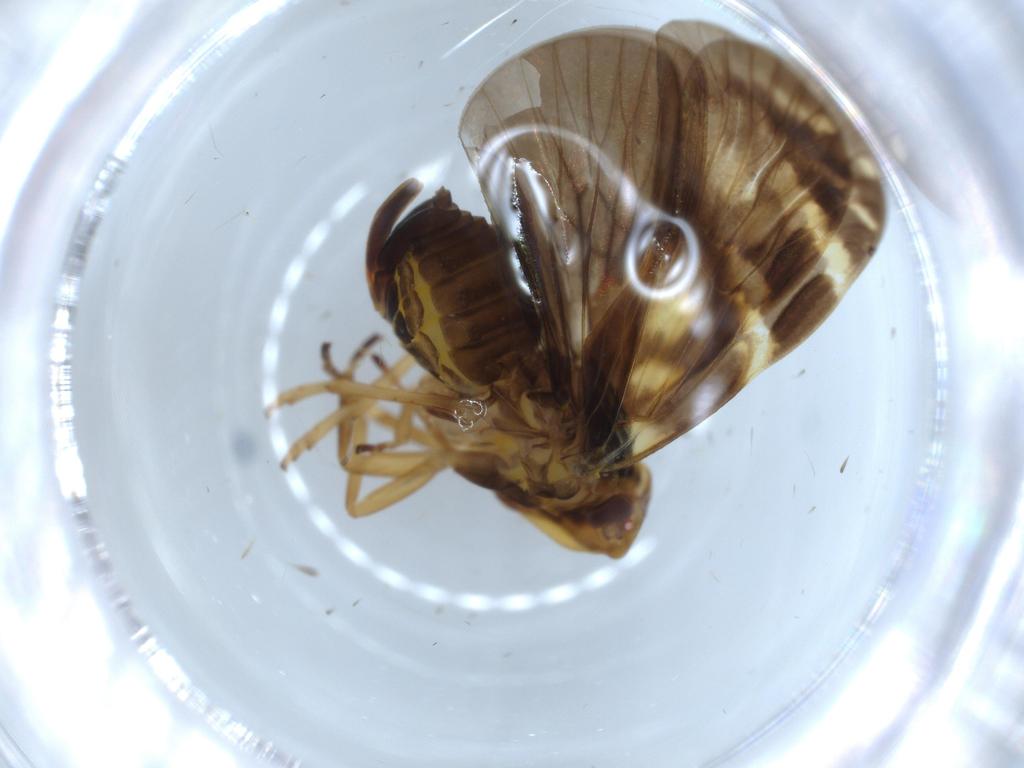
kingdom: Animalia
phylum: Arthropoda
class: Insecta
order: Hemiptera
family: Cixiidae
